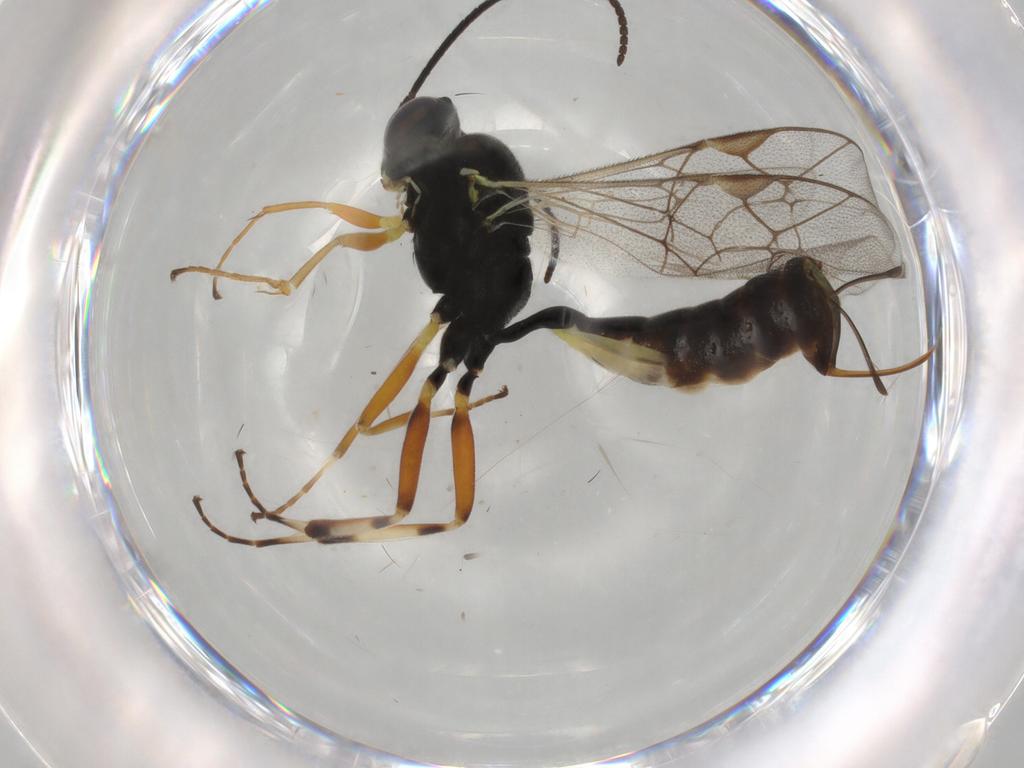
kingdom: Animalia
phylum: Arthropoda
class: Insecta
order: Hymenoptera
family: Ichneumonidae
